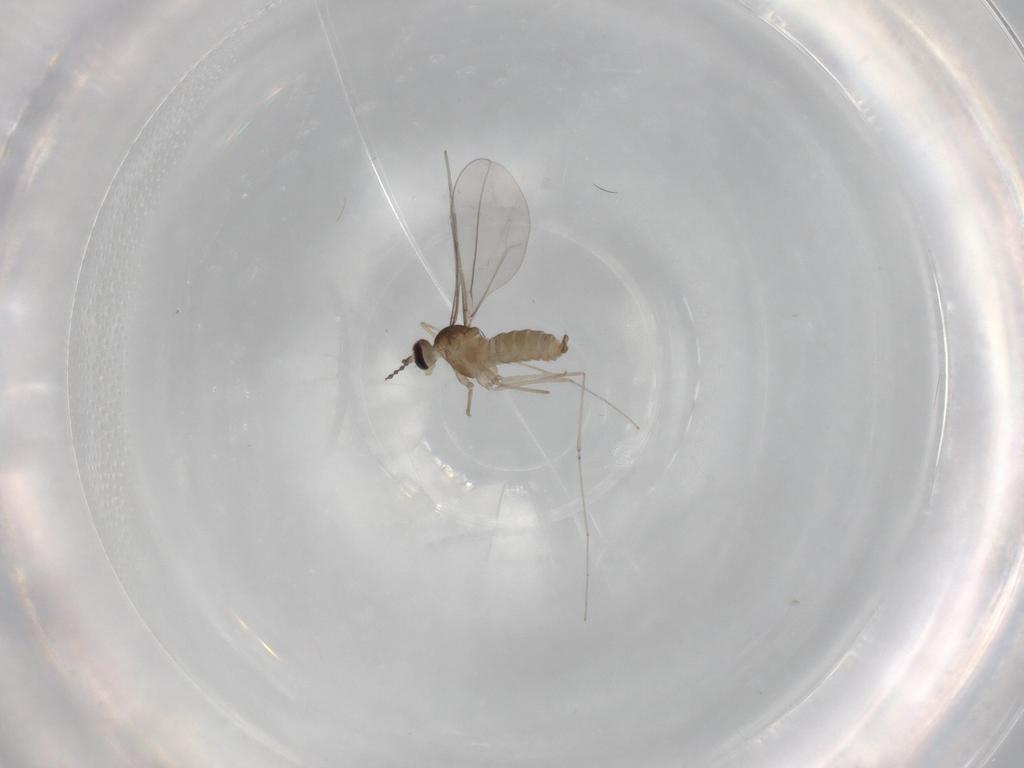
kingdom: Animalia
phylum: Arthropoda
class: Insecta
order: Diptera
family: Cecidomyiidae
